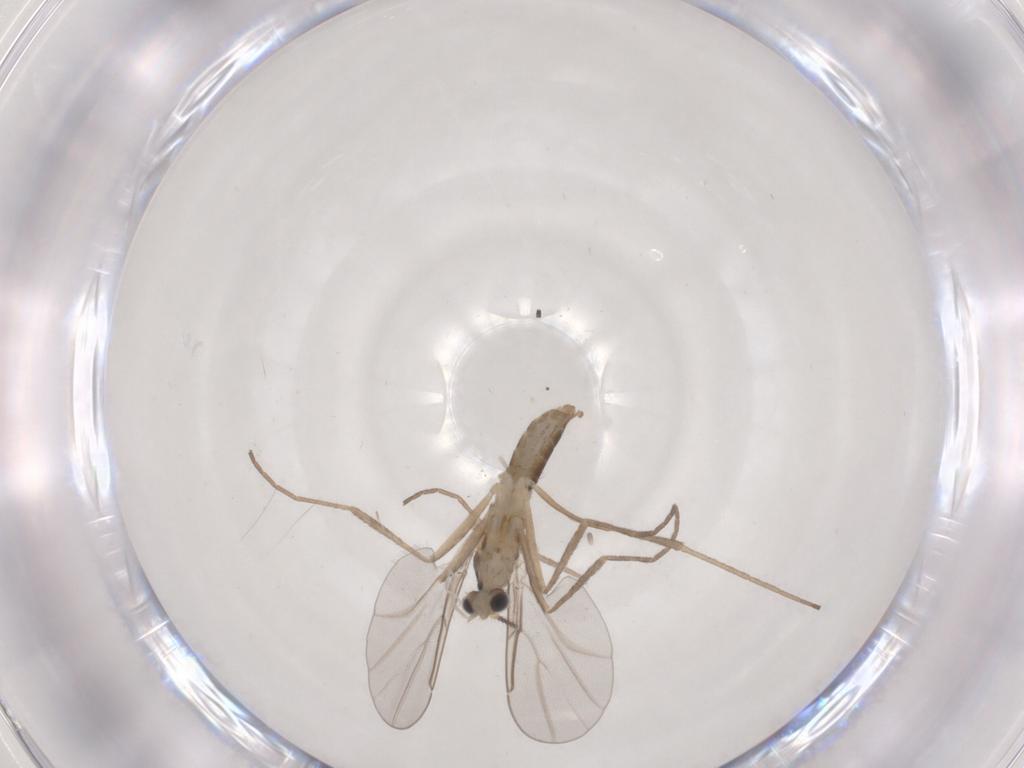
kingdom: Animalia
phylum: Arthropoda
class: Insecta
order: Diptera
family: Cecidomyiidae
